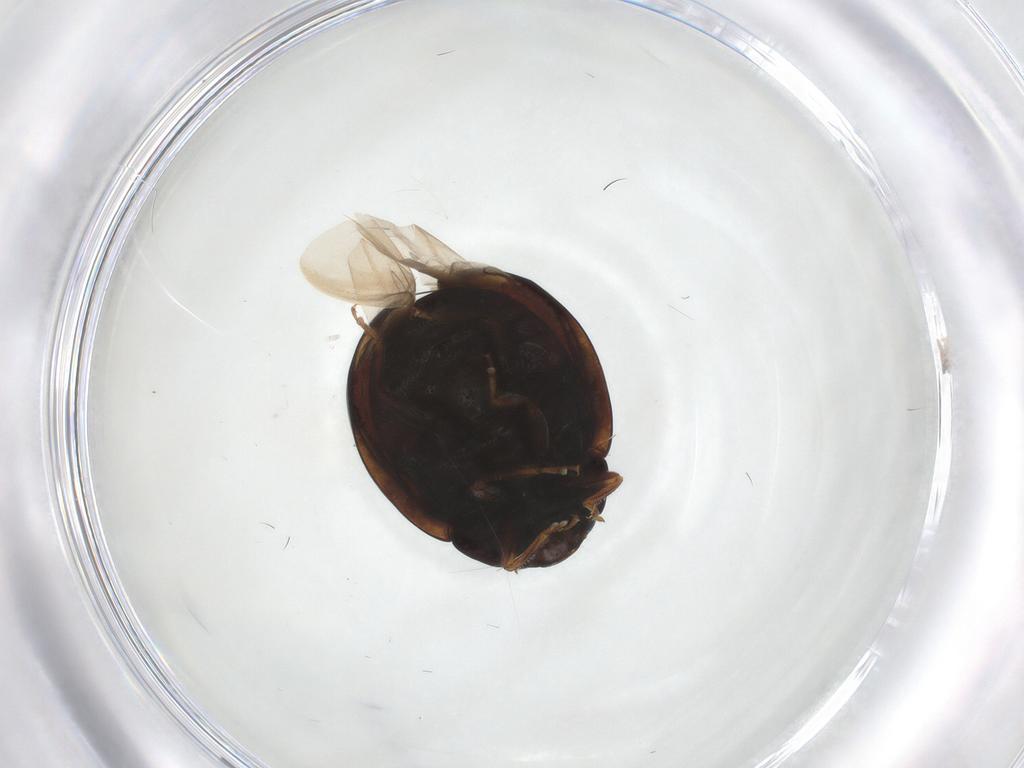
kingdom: Animalia
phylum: Arthropoda
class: Insecta
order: Coleoptera
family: Coccinellidae
